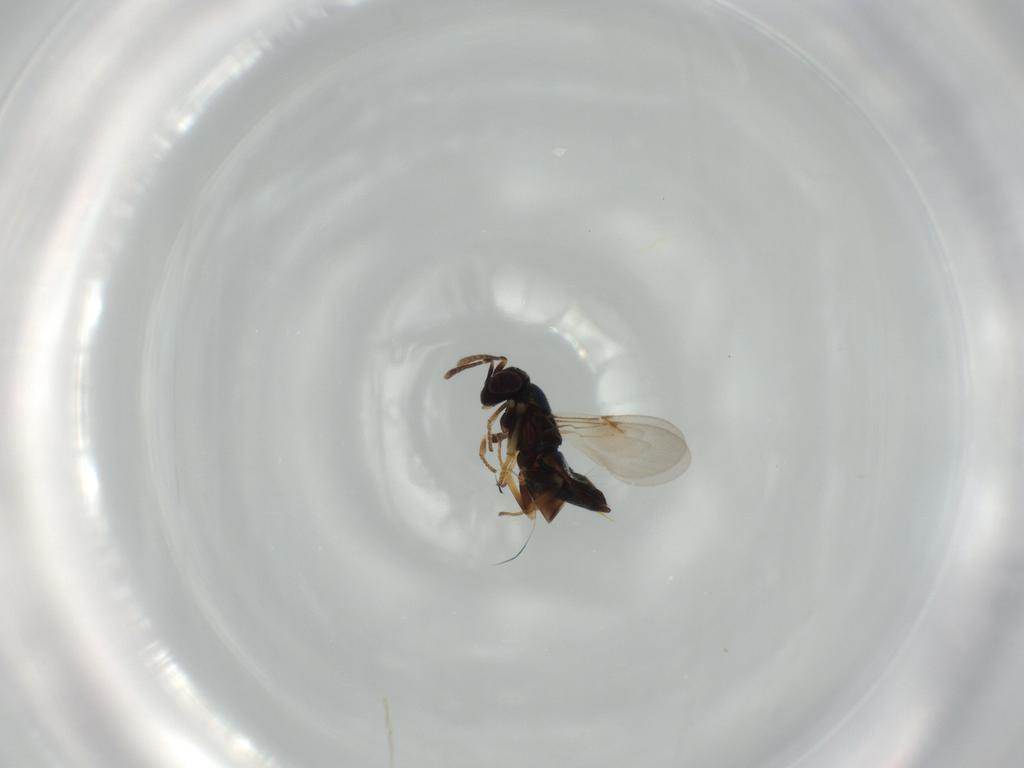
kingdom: Animalia
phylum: Arthropoda
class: Insecta
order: Hymenoptera
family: Encyrtidae
